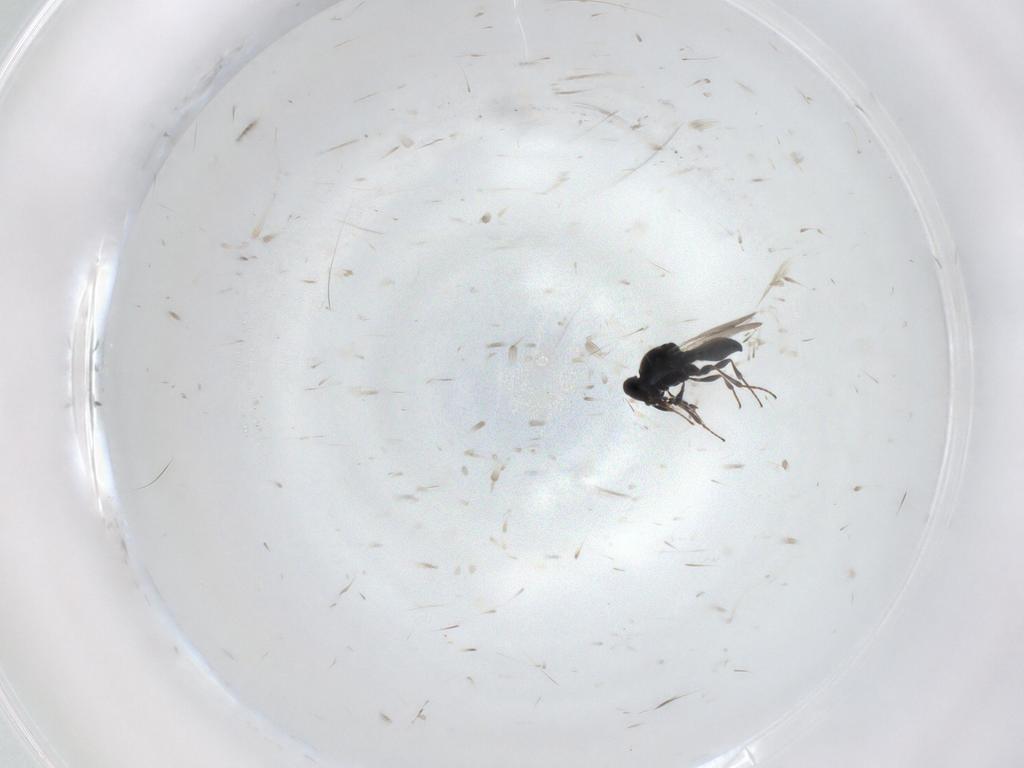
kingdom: Animalia
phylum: Arthropoda
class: Insecta
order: Hymenoptera
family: Platygastridae
